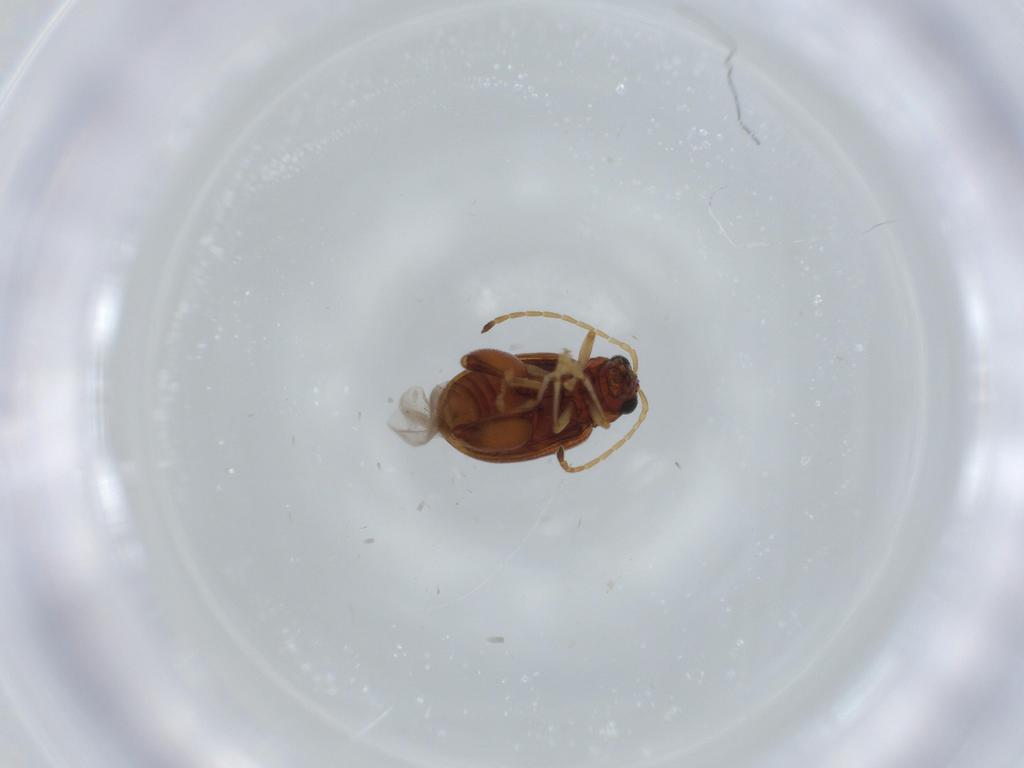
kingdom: Animalia
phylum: Arthropoda
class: Insecta
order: Coleoptera
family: Chrysomelidae
